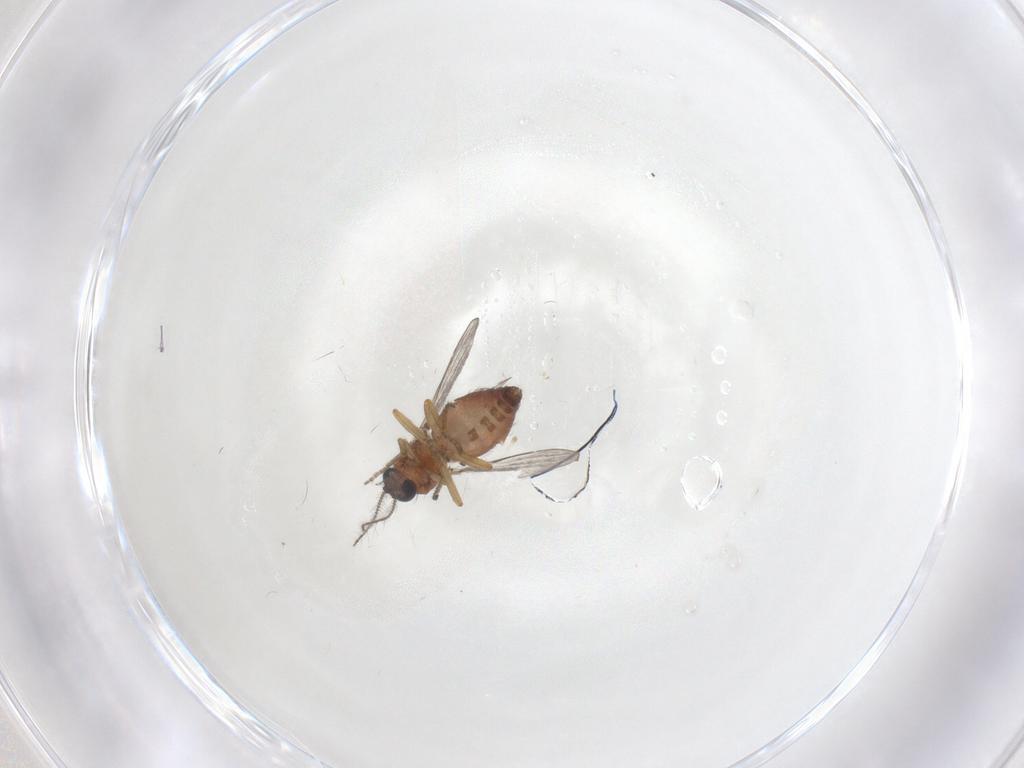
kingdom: Animalia
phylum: Arthropoda
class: Insecta
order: Diptera
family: Ceratopogonidae
